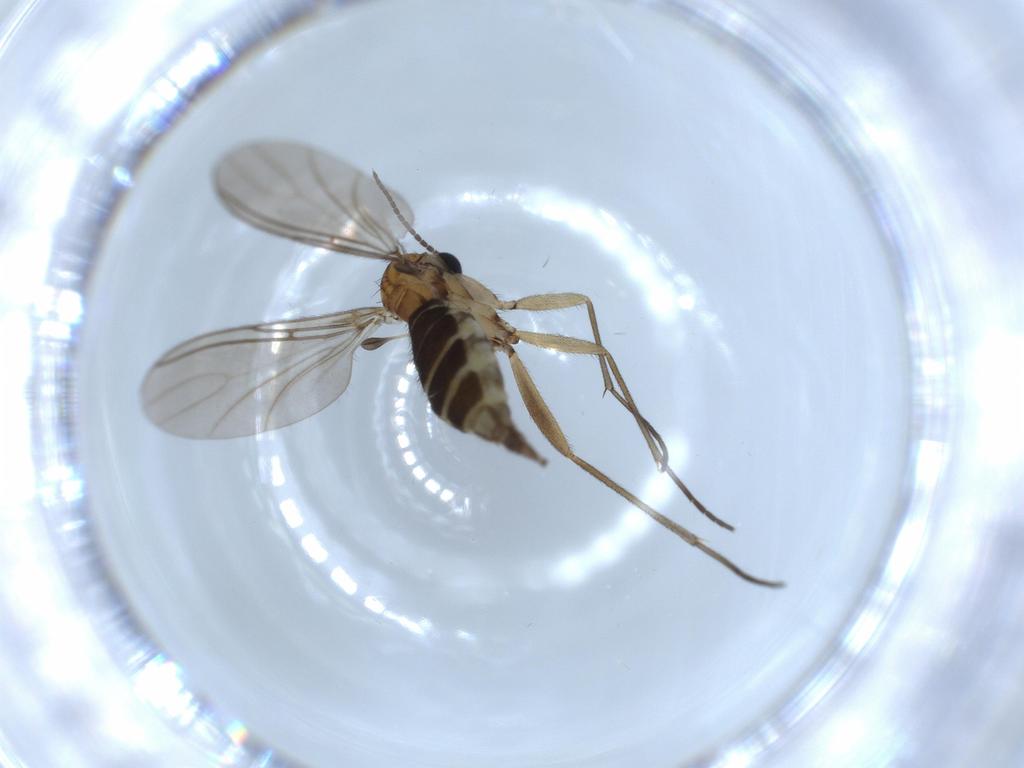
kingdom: Animalia
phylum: Arthropoda
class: Insecta
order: Diptera
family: Sciaridae
